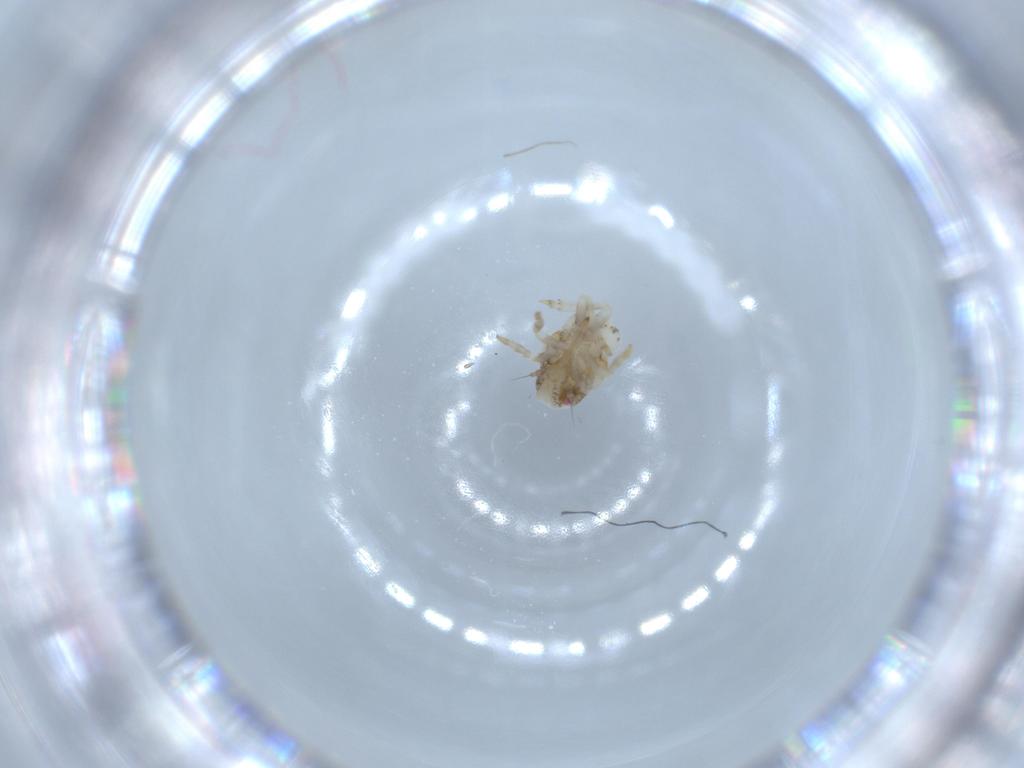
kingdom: Animalia
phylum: Arthropoda
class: Insecta
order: Hemiptera
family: Acanaloniidae
